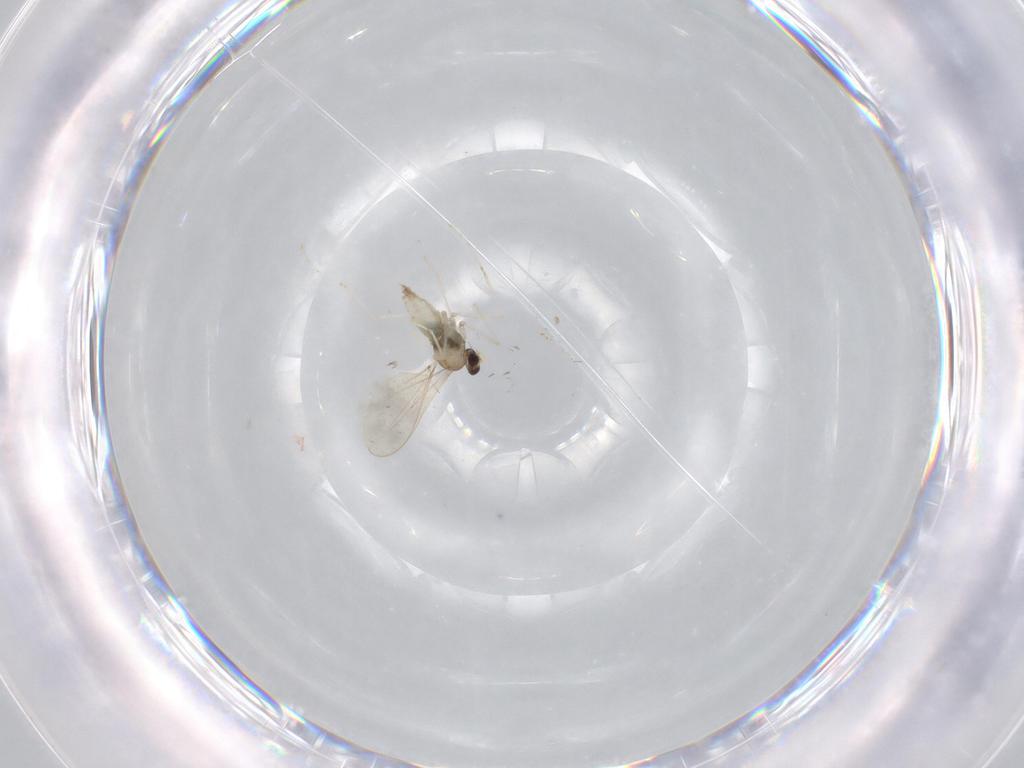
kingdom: Animalia
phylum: Arthropoda
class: Insecta
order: Diptera
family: Cecidomyiidae
